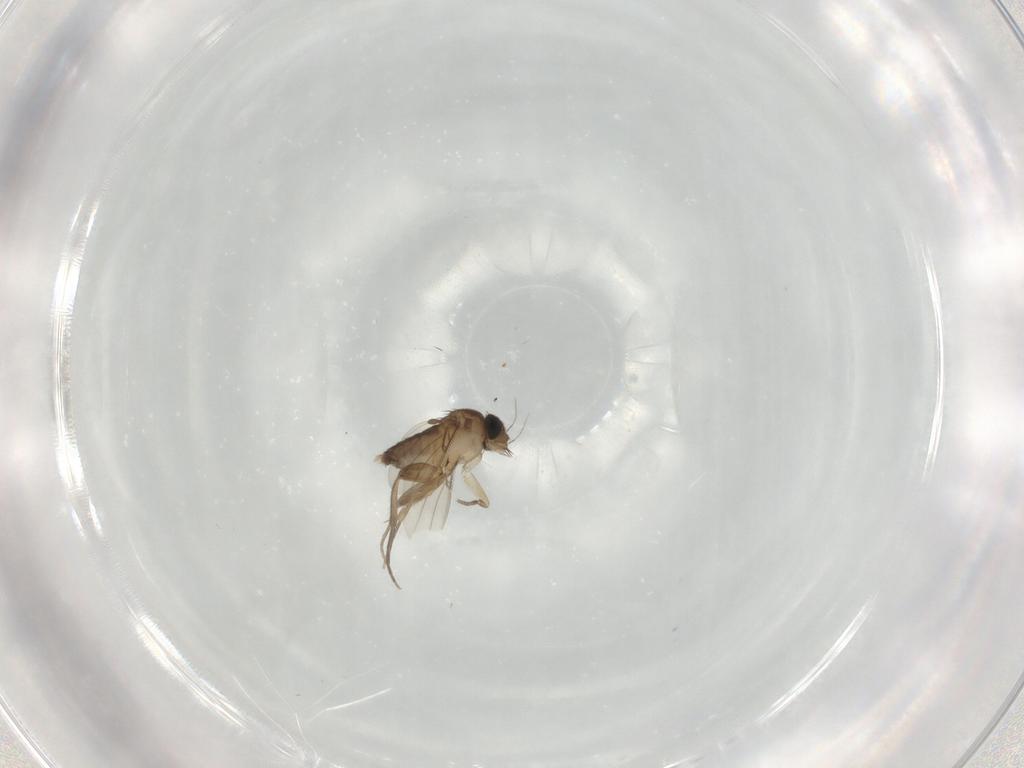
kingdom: Animalia
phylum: Arthropoda
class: Insecta
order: Diptera
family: Phoridae
